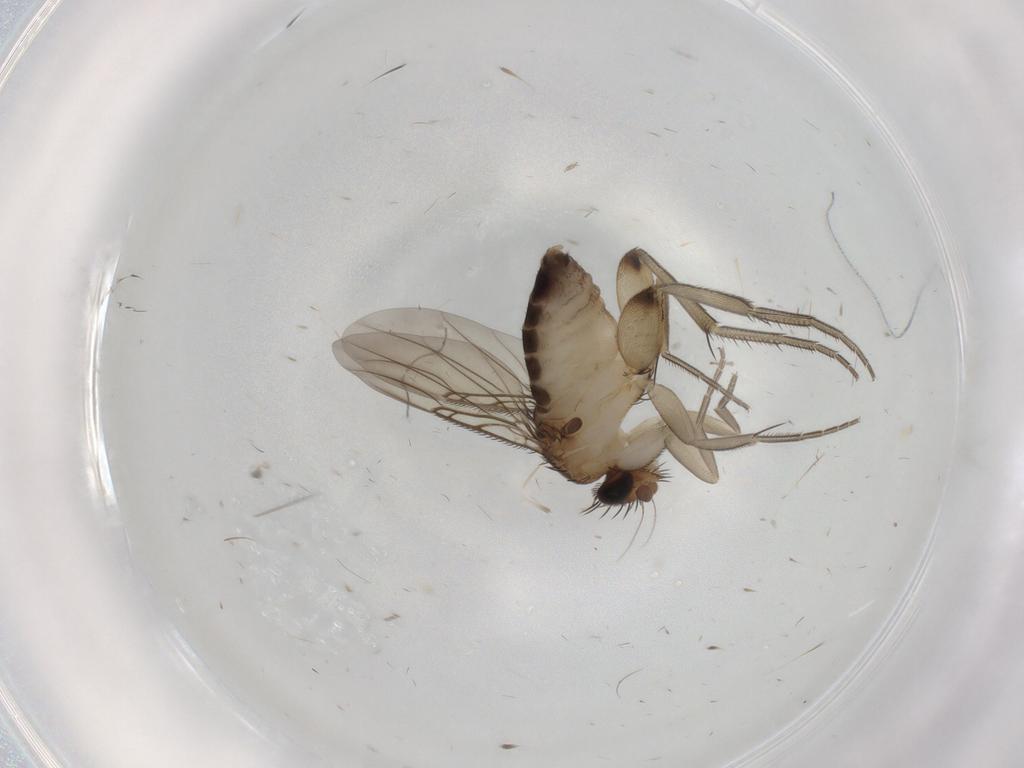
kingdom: Animalia
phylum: Arthropoda
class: Insecta
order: Diptera
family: Phoridae
